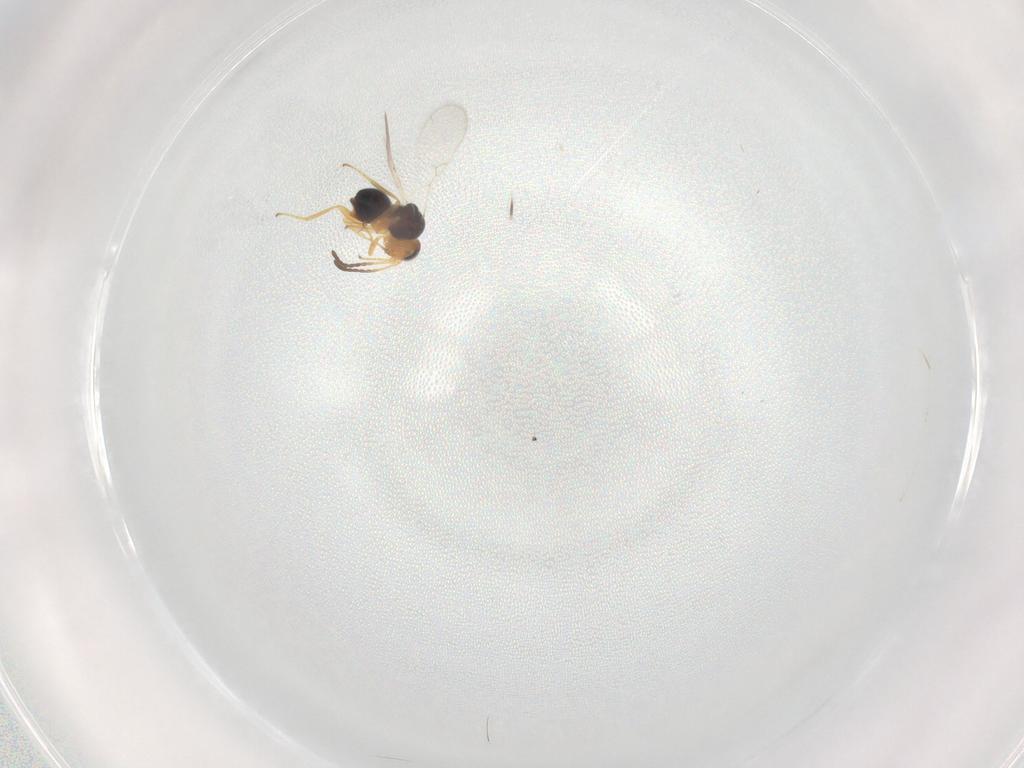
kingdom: Animalia
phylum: Arthropoda
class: Insecta
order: Hymenoptera
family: Figitidae
